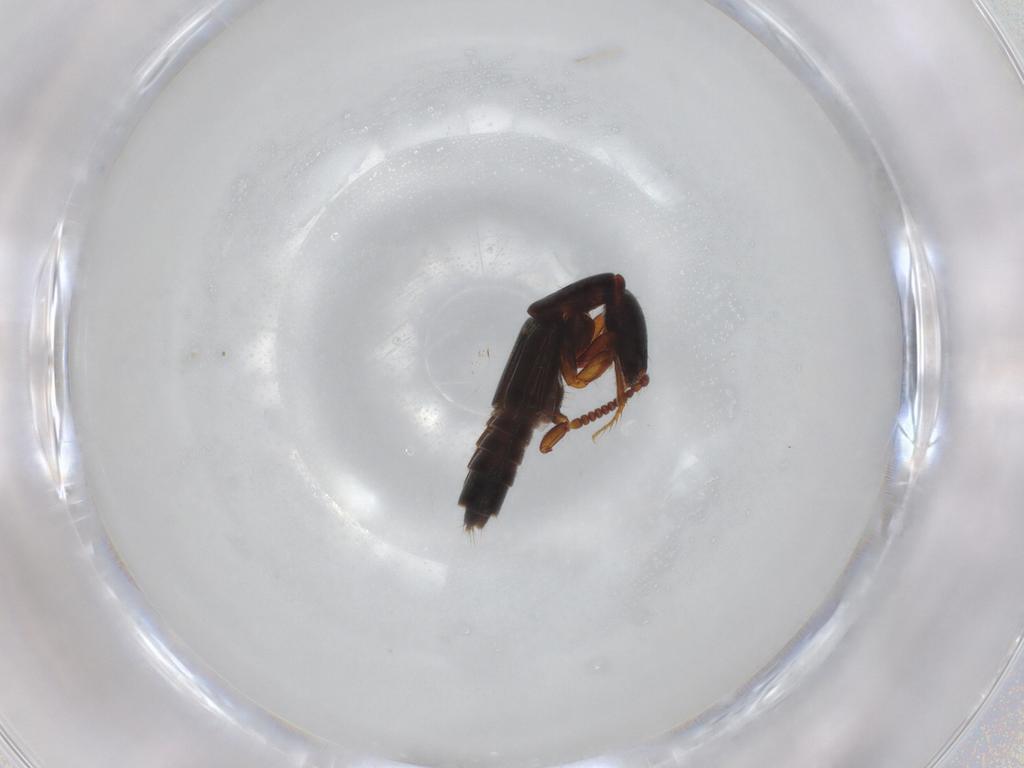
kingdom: Animalia
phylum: Arthropoda
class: Insecta
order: Coleoptera
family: Staphylinidae
